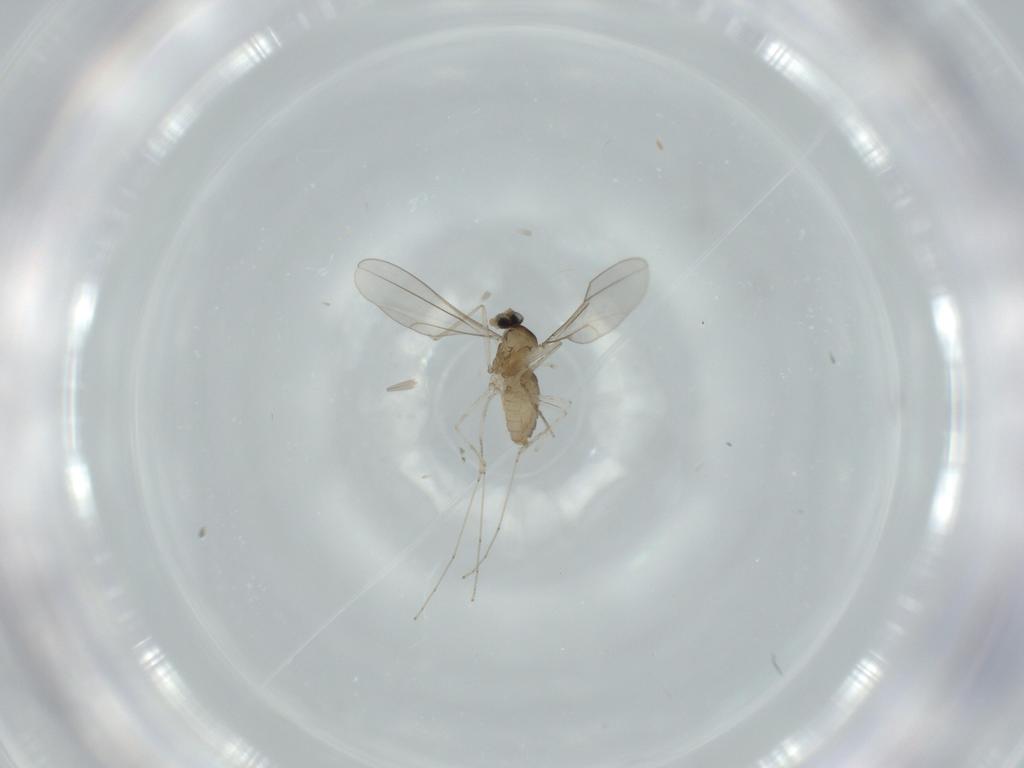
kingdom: Animalia
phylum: Arthropoda
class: Insecta
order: Diptera
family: Cecidomyiidae
